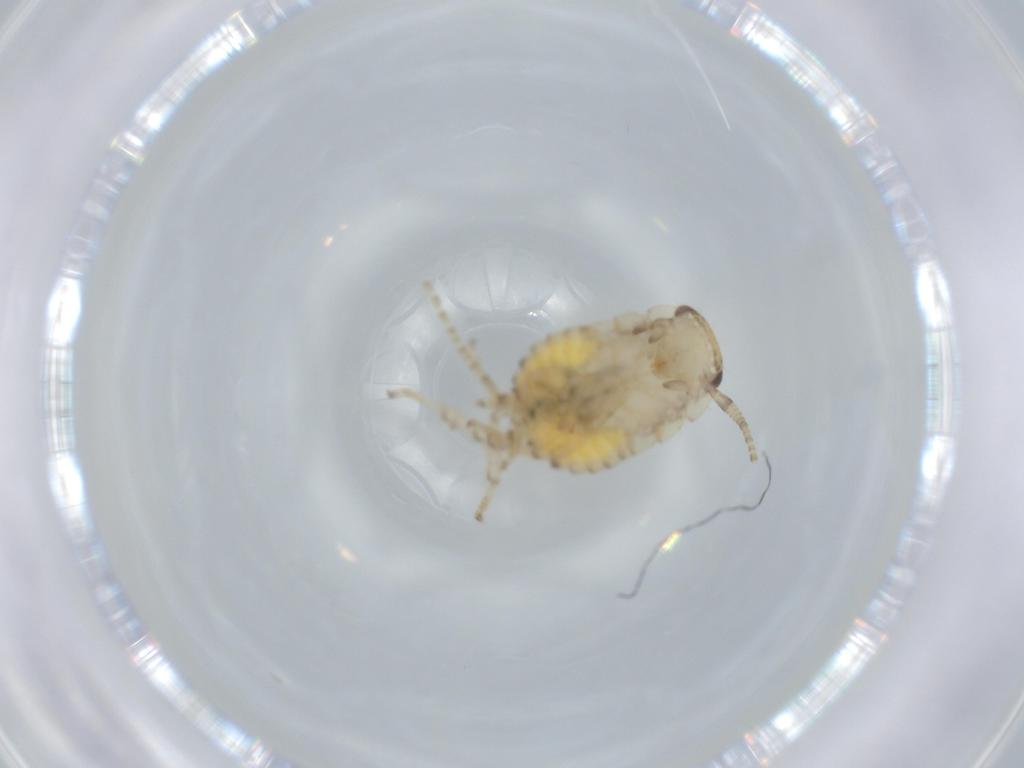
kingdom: Animalia
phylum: Arthropoda
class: Insecta
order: Blattodea
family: Ectobiidae
